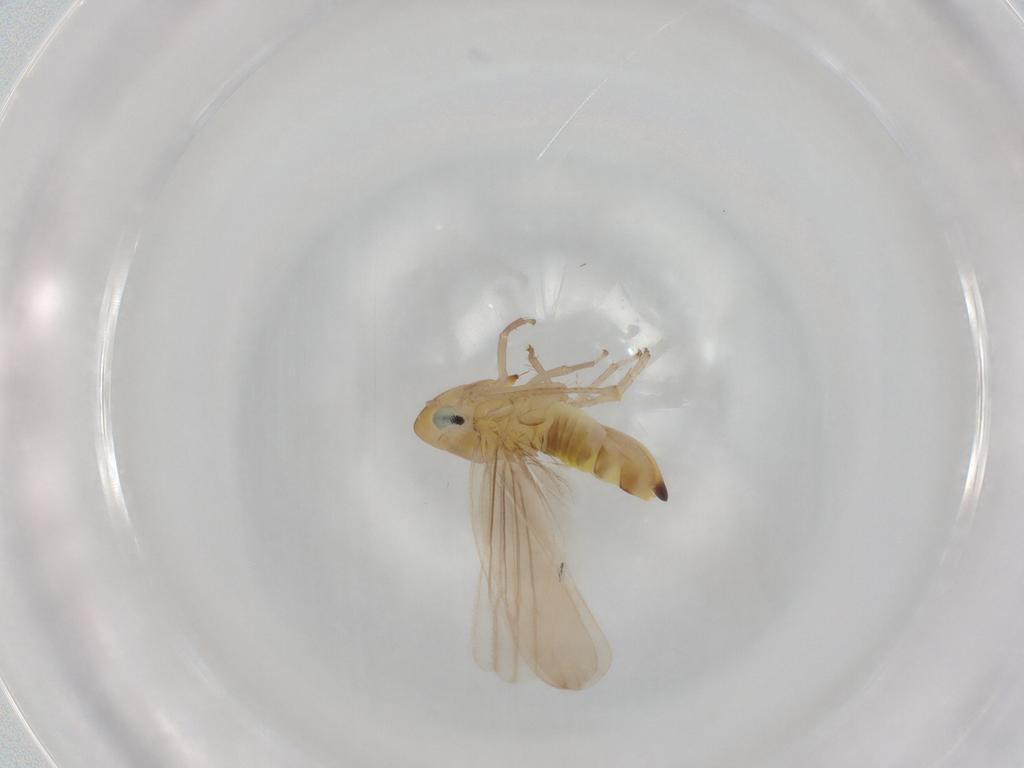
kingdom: Animalia
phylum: Arthropoda
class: Insecta
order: Hemiptera
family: Cicadellidae
